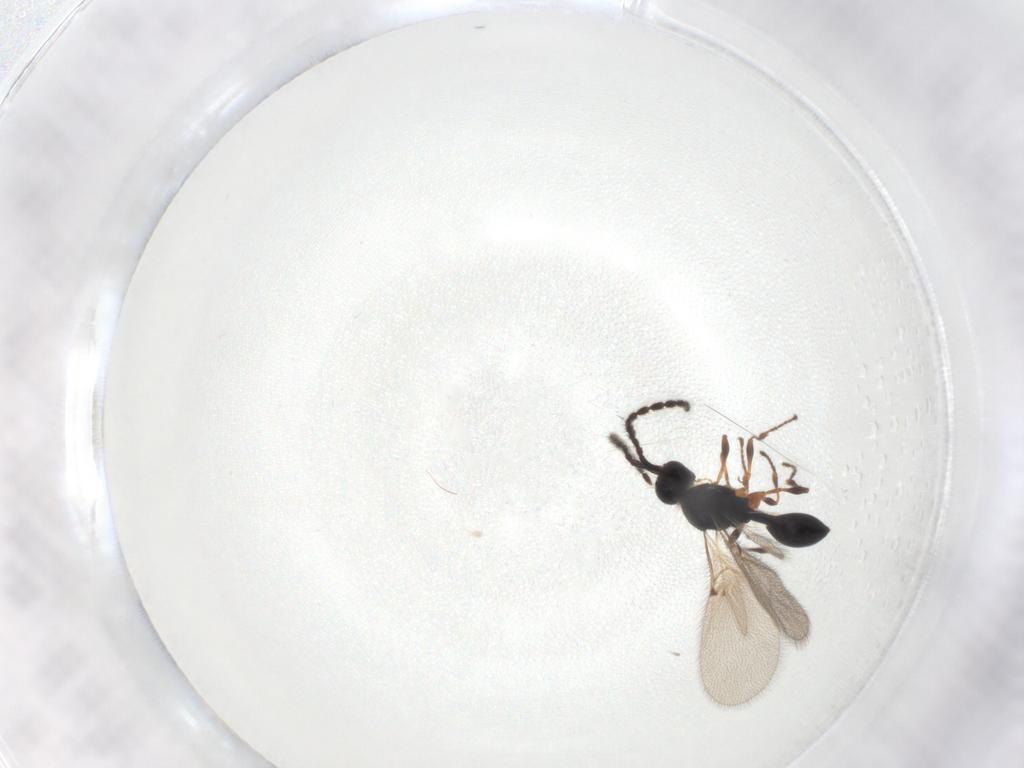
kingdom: Animalia
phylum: Arthropoda
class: Insecta
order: Hymenoptera
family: Diapriidae
